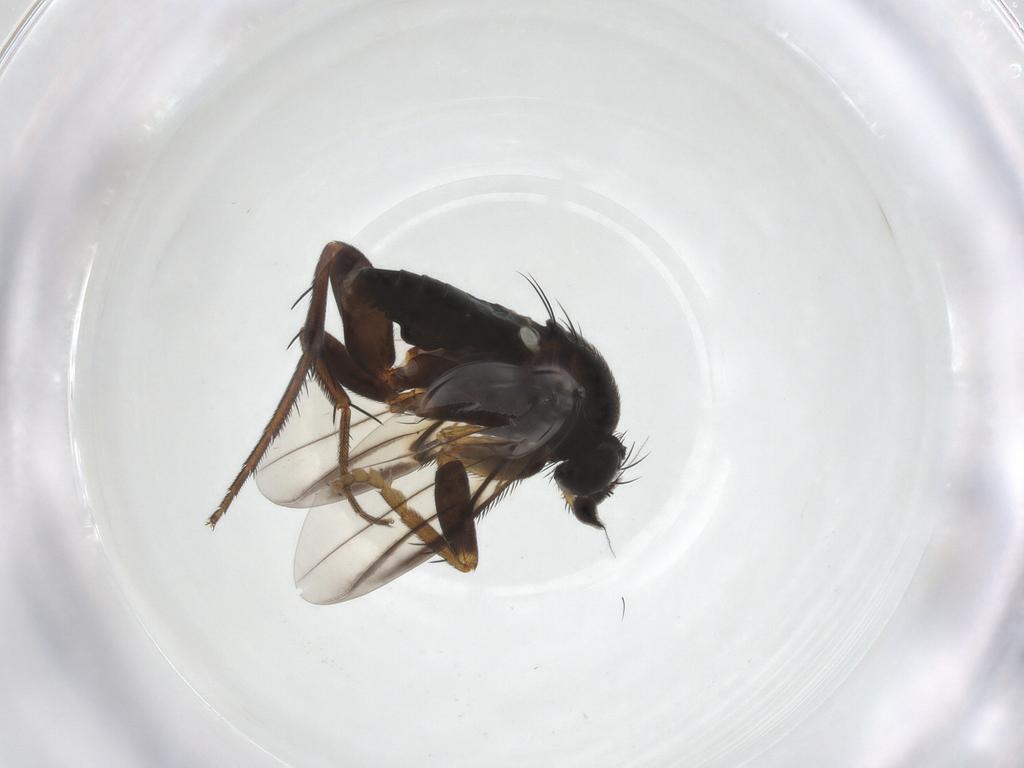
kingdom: Animalia
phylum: Arthropoda
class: Insecta
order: Diptera
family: Phoridae
